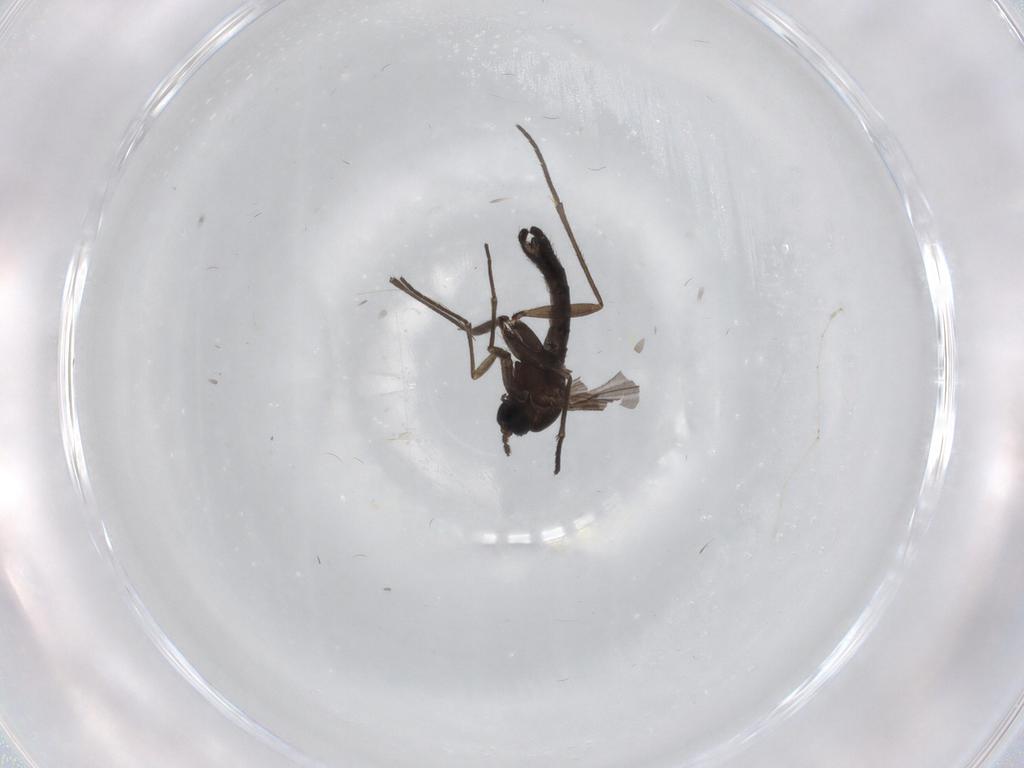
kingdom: Animalia
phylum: Arthropoda
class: Insecta
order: Diptera
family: Sciaridae
